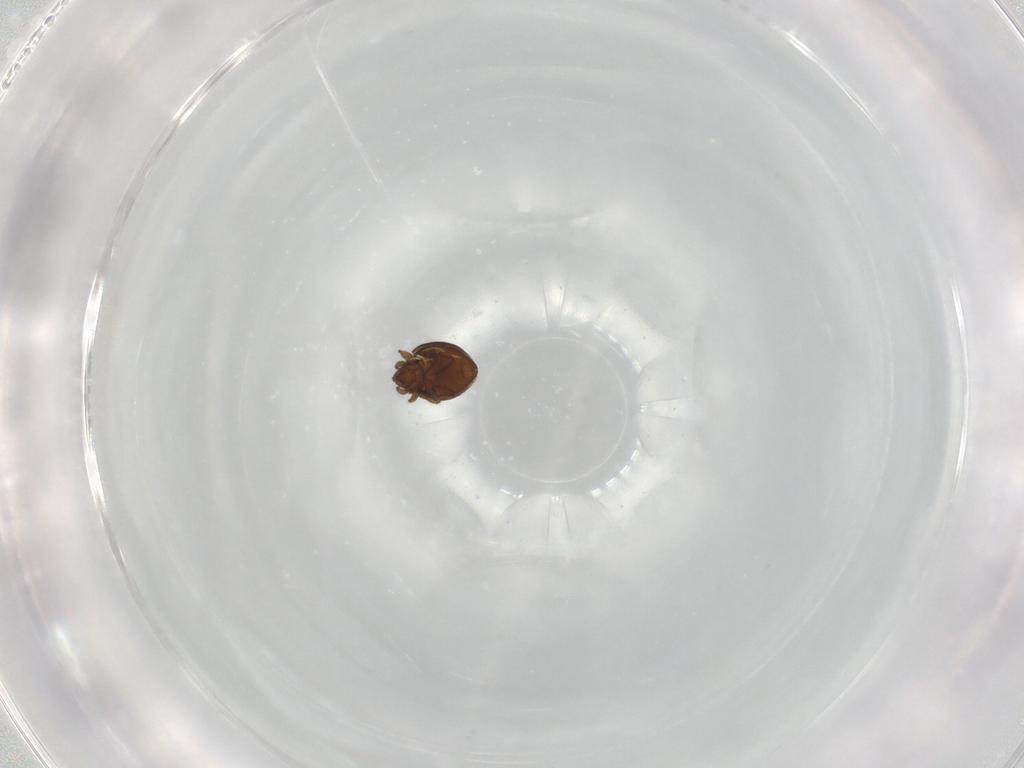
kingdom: Animalia
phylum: Arthropoda
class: Arachnida
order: Sarcoptiformes
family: Oribatulidae
